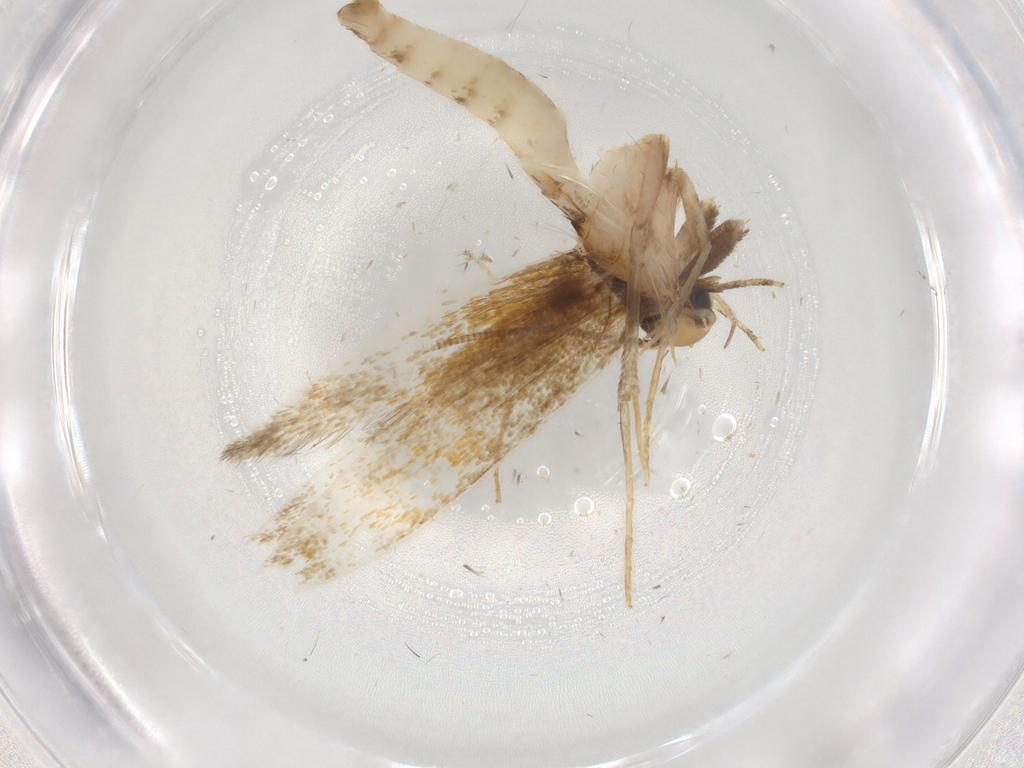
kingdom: Animalia
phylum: Arthropoda
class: Insecta
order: Lepidoptera
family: Tineidae
